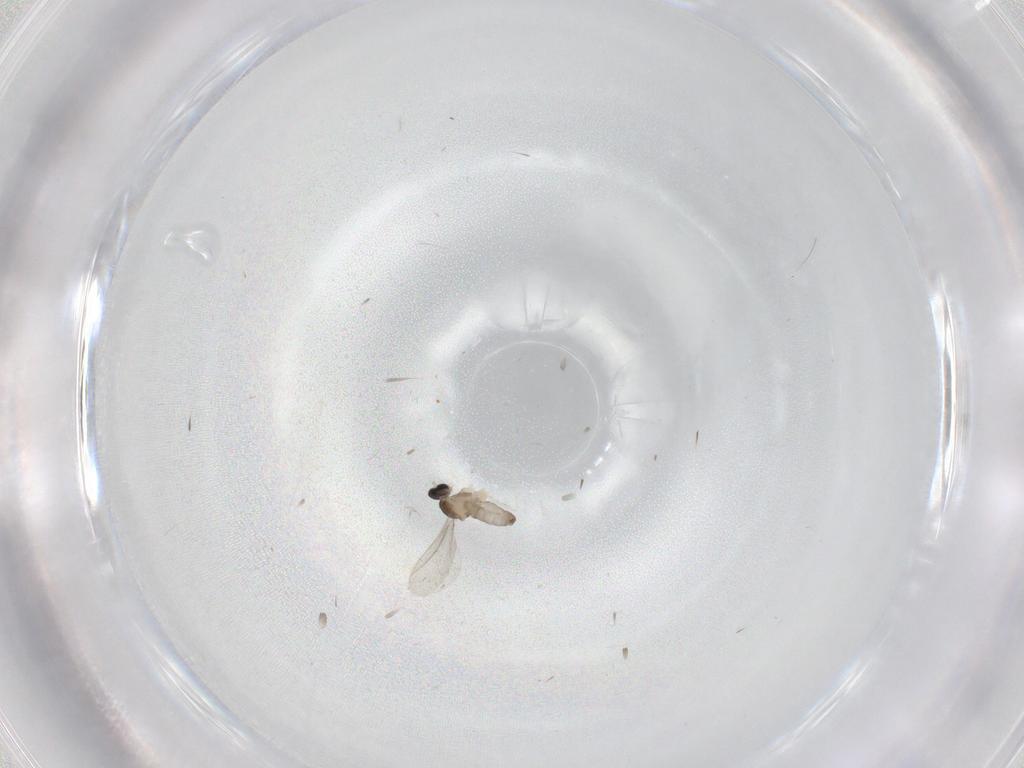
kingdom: Animalia
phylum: Arthropoda
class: Insecta
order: Diptera
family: Cecidomyiidae
